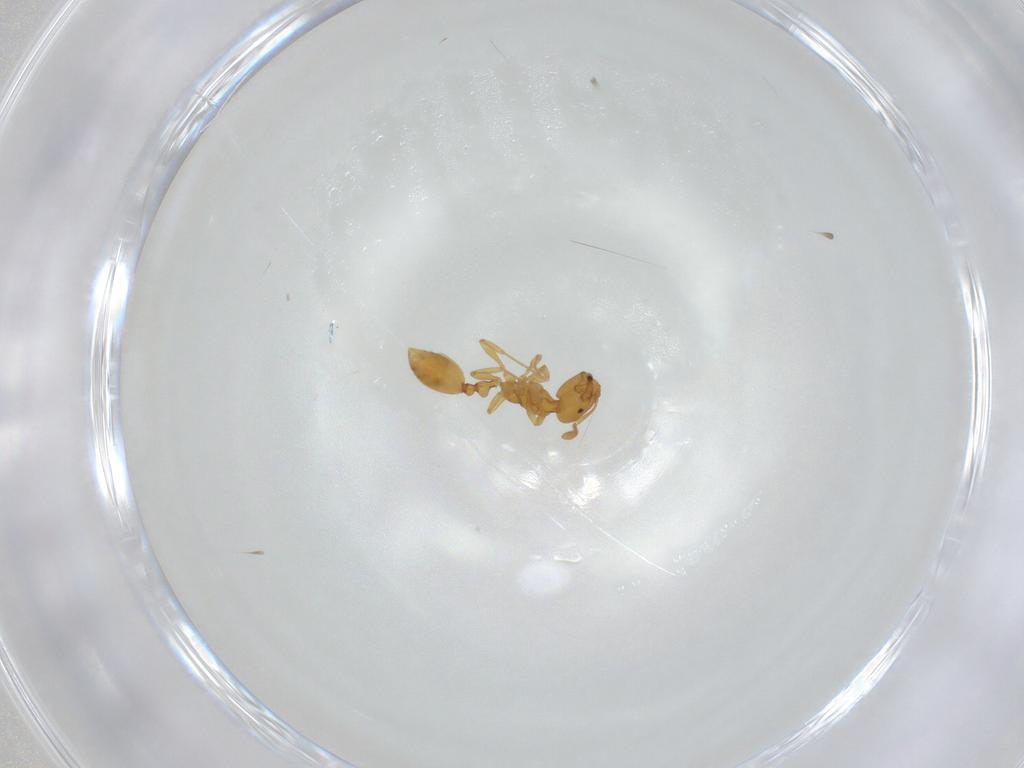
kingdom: Animalia
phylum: Arthropoda
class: Insecta
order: Hymenoptera
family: Formicidae
